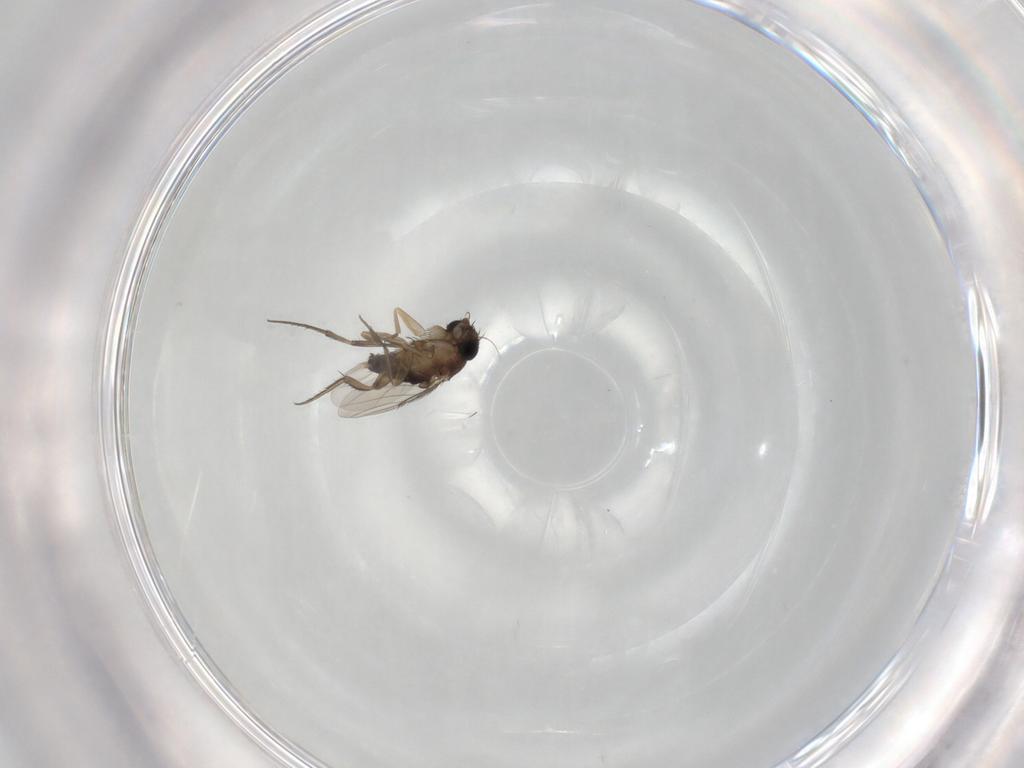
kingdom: Animalia
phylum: Arthropoda
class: Insecta
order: Diptera
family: Phoridae
